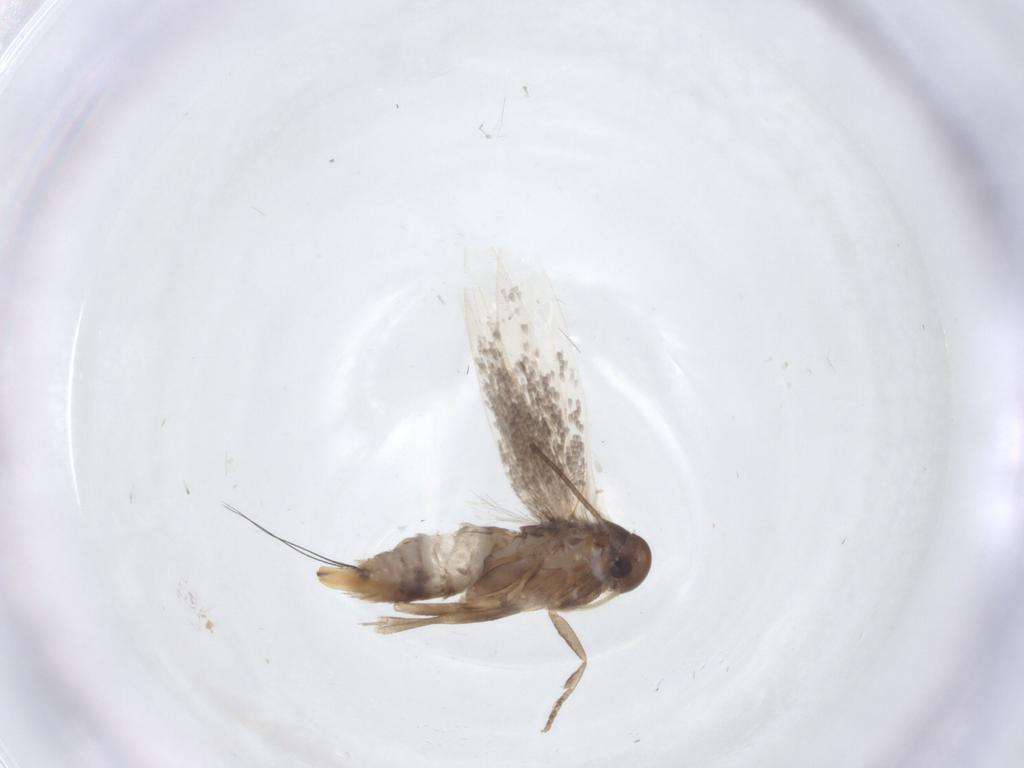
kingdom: Animalia
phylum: Arthropoda
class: Insecta
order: Lepidoptera
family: Elachistidae
